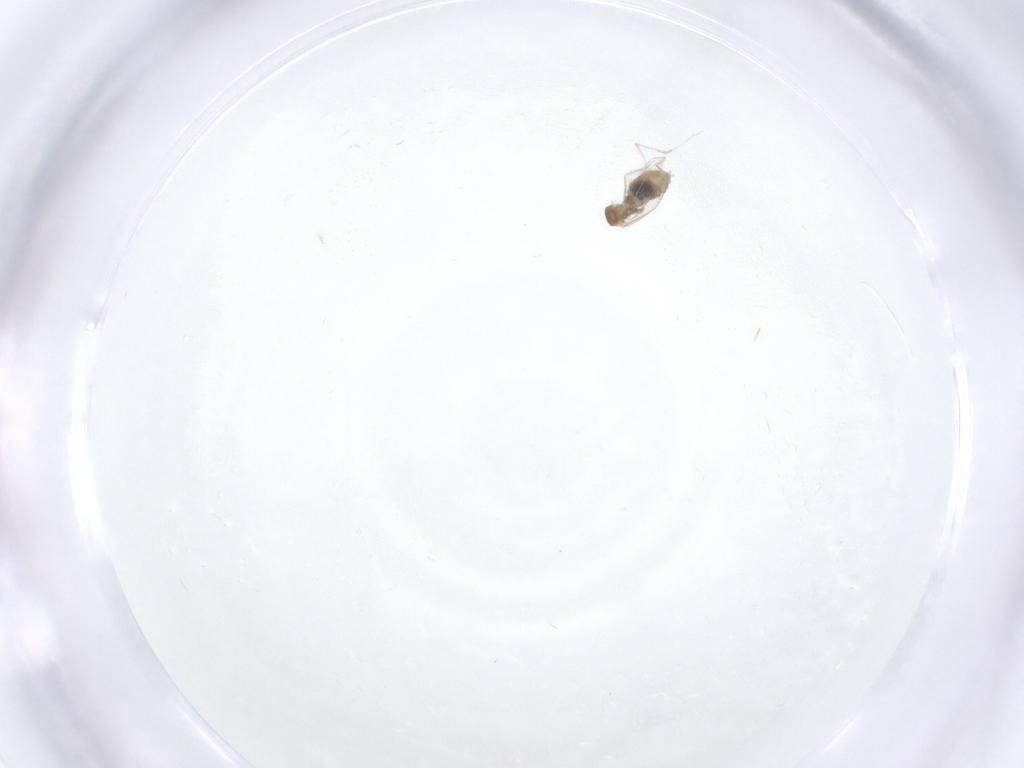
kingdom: Animalia
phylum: Arthropoda
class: Insecta
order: Diptera
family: Cecidomyiidae
